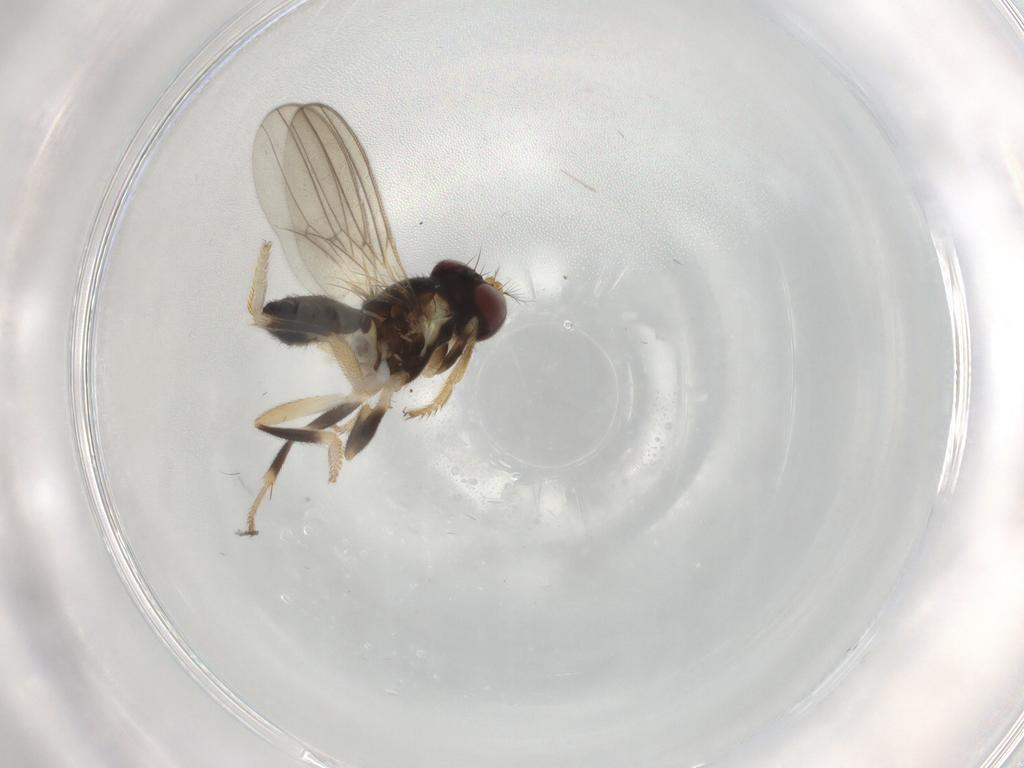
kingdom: Animalia
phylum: Arthropoda
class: Insecta
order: Diptera
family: Periscelididae
